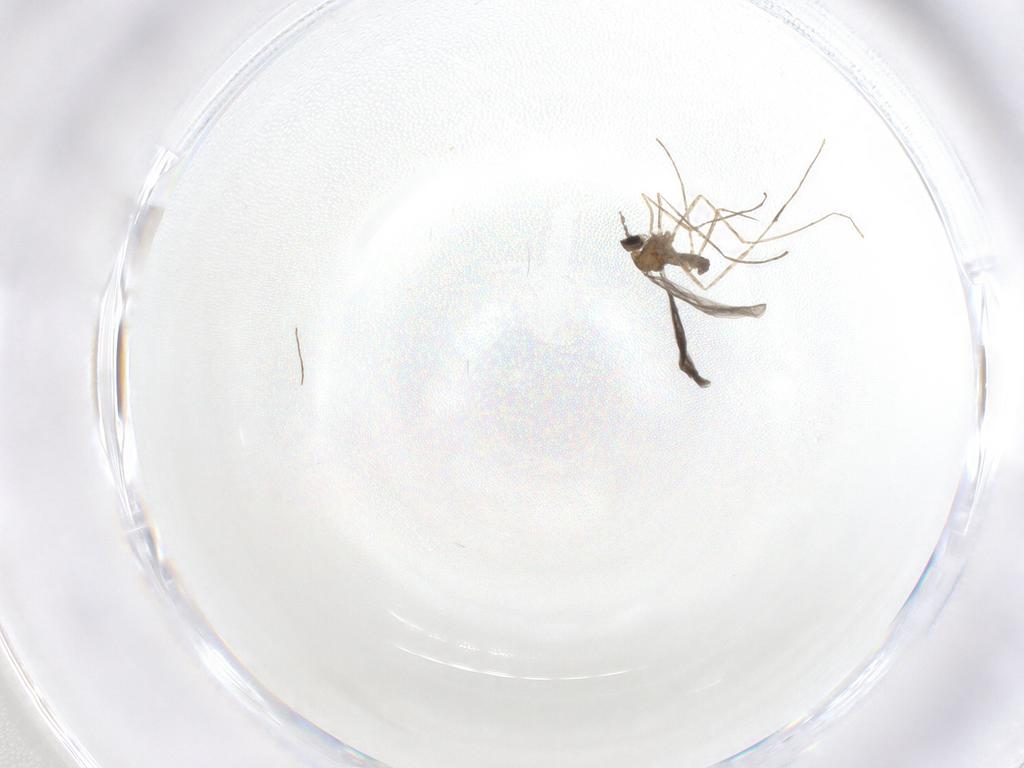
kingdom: Animalia
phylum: Arthropoda
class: Insecta
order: Diptera
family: Cecidomyiidae
